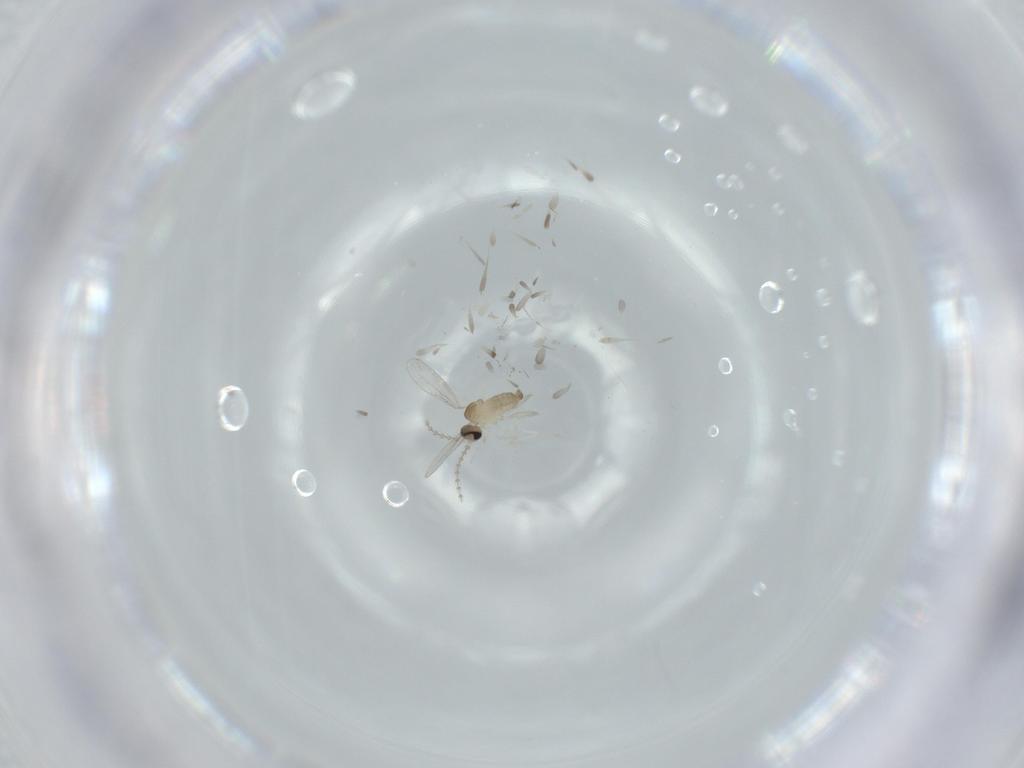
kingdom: Animalia
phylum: Arthropoda
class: Insecta
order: Diptera
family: Cecidomyiidae
